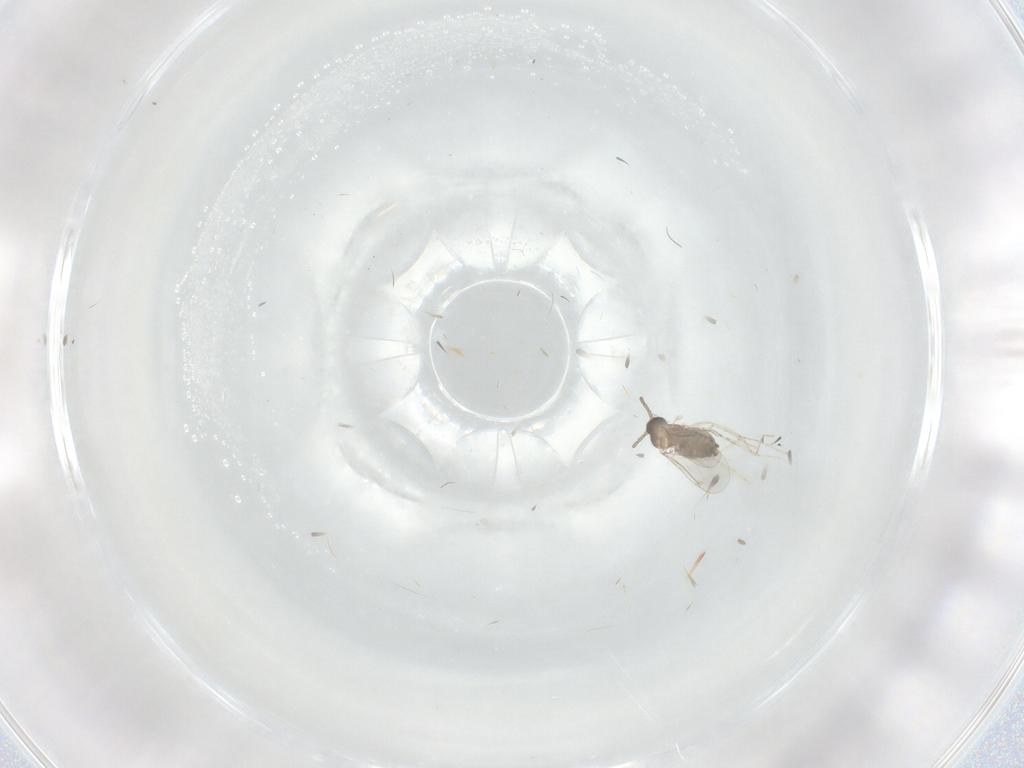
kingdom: Animalia
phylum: Arthropoda
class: Insecta
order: Diptera
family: Cecidomyiidae
